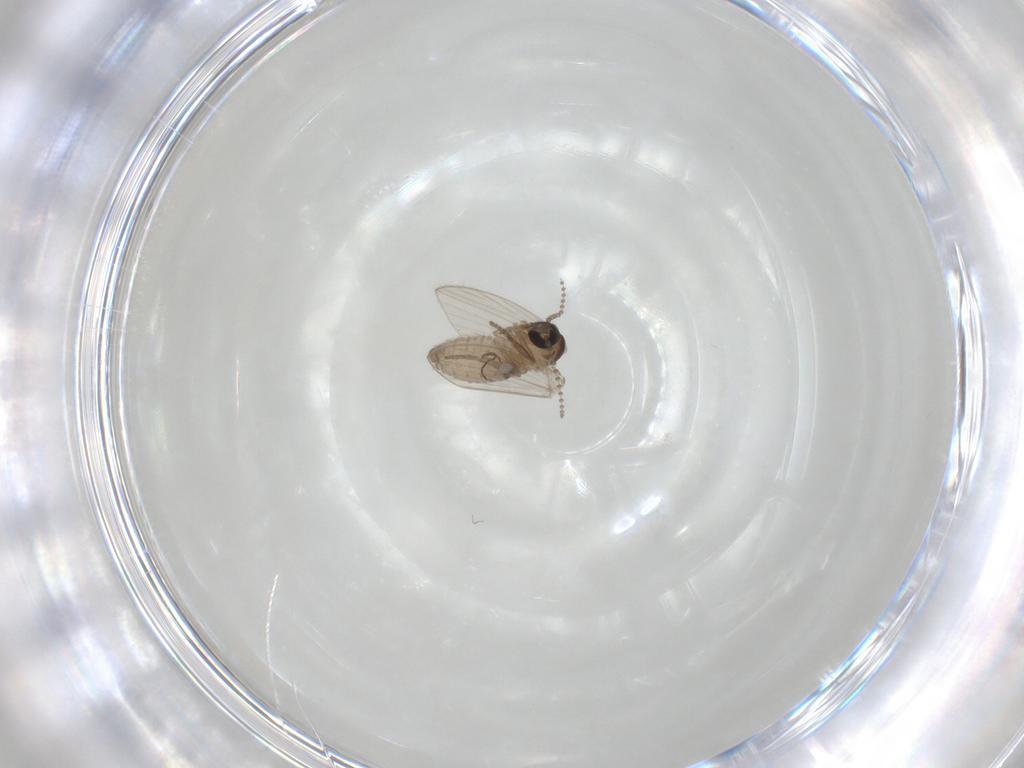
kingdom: Animalia
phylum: Arthropoda
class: Insecta
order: Diptera
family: Psychodidae
